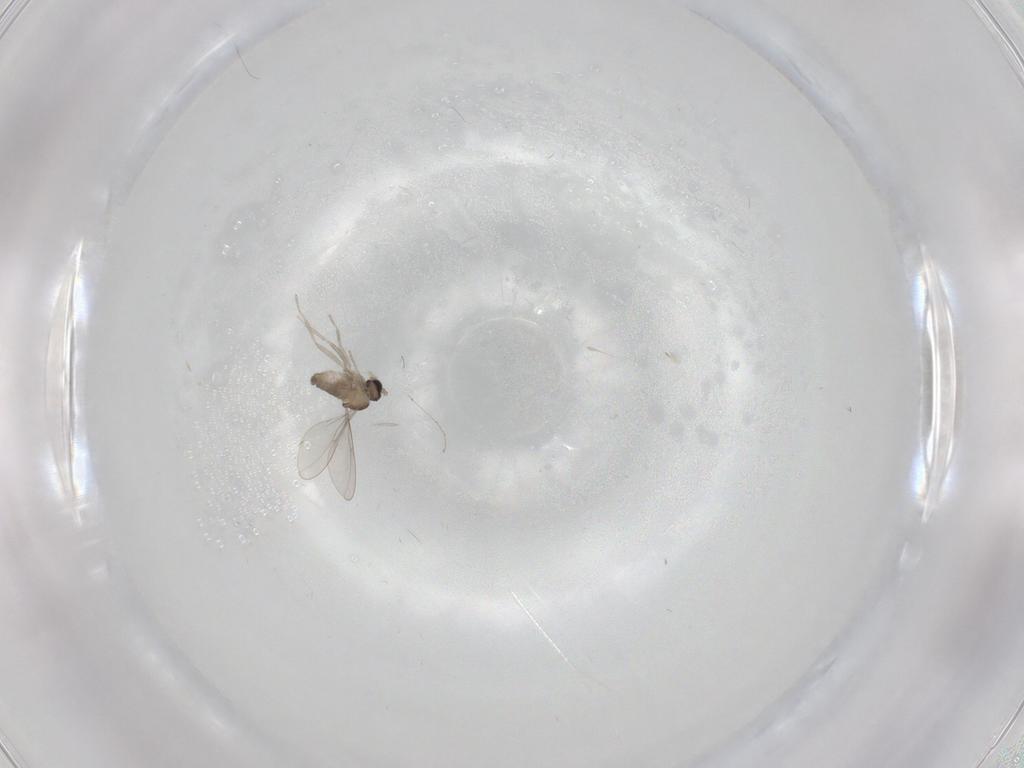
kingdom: Animalia
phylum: Arthropoda
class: Insecta
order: Diptera
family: Cecidomyiidae
